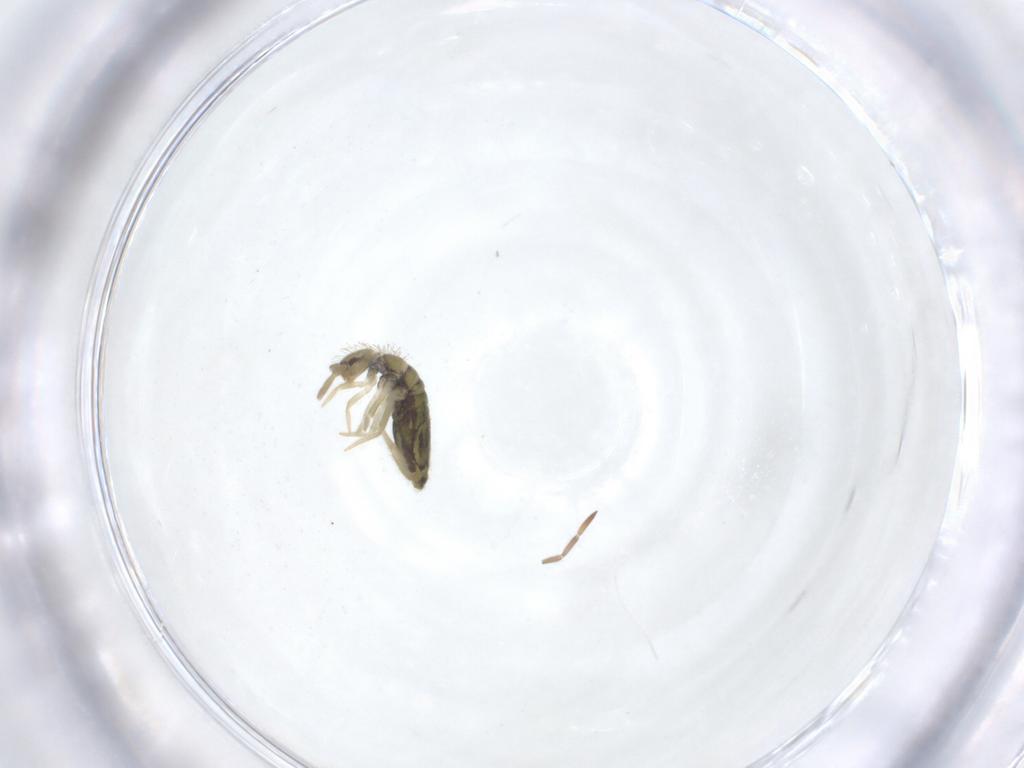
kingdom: Animalia
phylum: Arthropoda
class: Collembola
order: Entomobryomorpha
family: Entomobryidae
